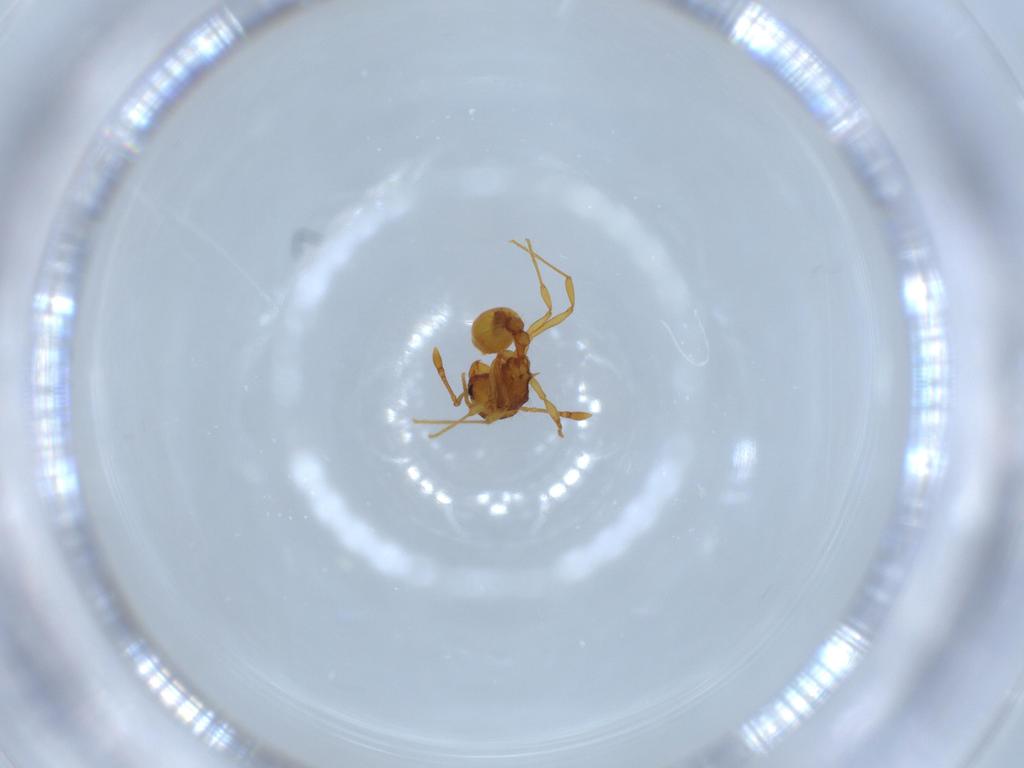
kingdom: Animalia
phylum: Arthropoda
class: Insecta
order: Hymenoptera
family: Formicidae
